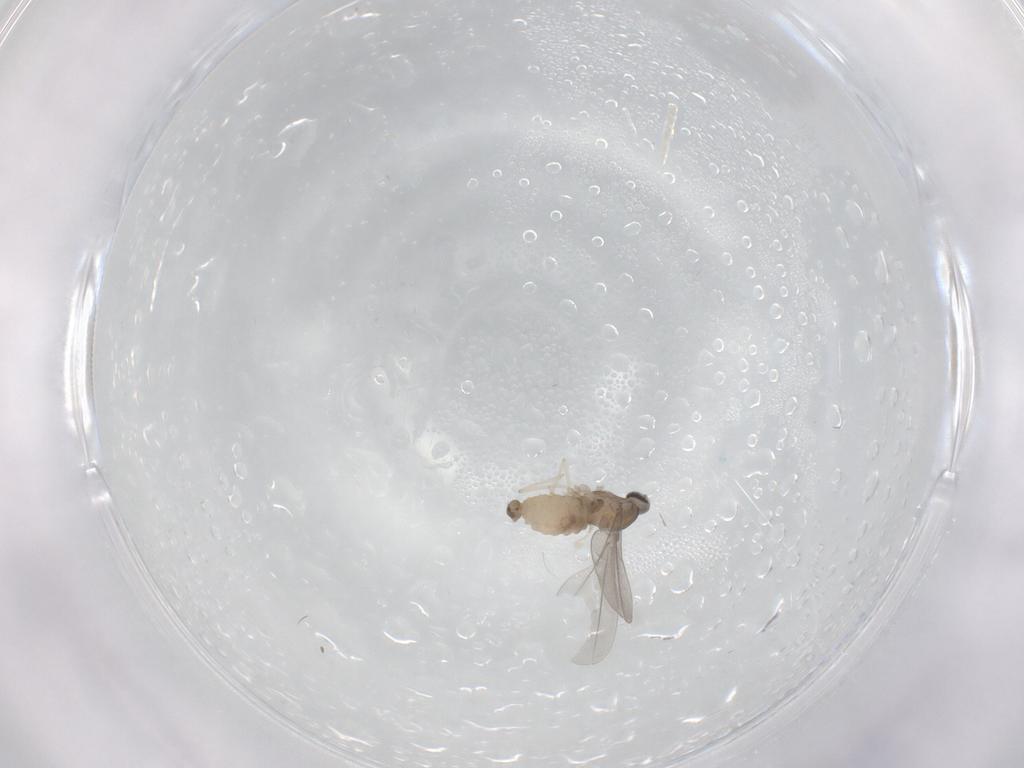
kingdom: Animalia
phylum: Arthropoda
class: Insecta
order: Diptera
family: Cecidomyiidae
